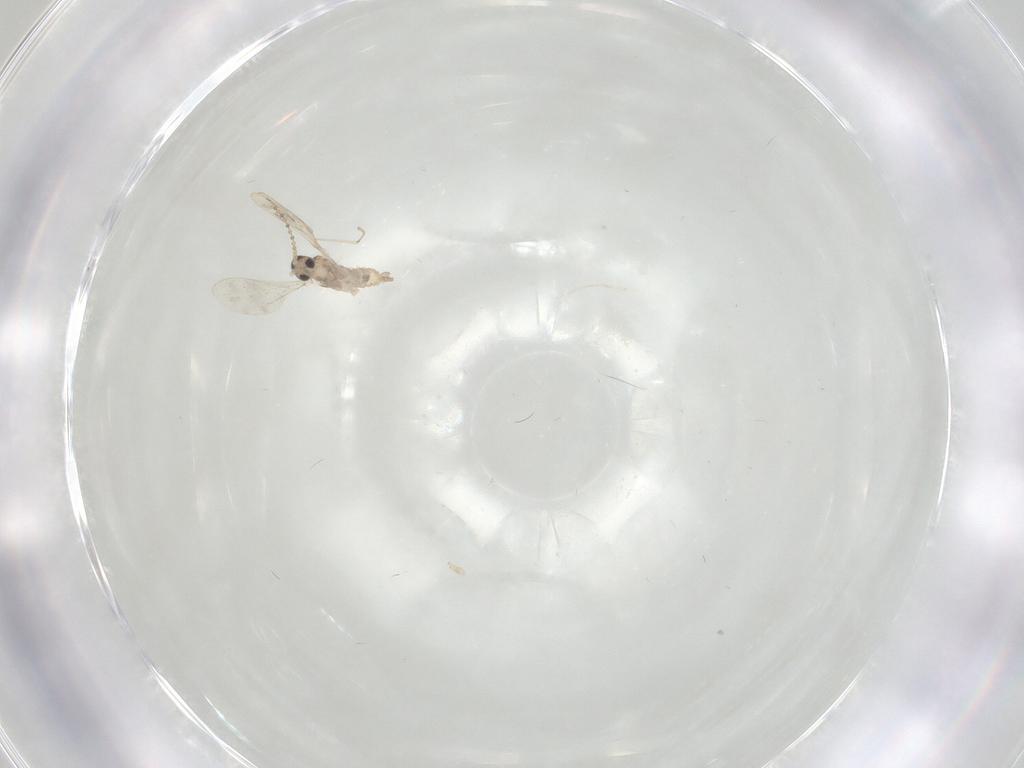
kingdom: Animalia
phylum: Arthropoda
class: Insecta
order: Diptera
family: Cecidomyiidae
